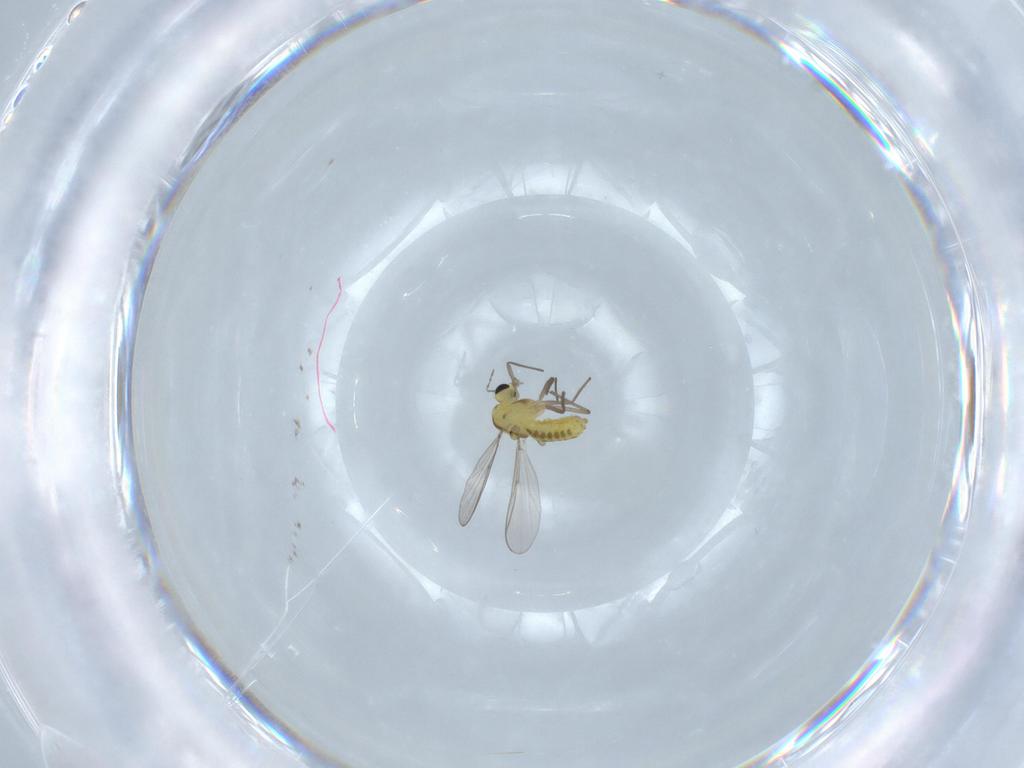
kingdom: Animalia
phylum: Arthropoda
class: Insecta
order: Diptera
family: Chironomidae
